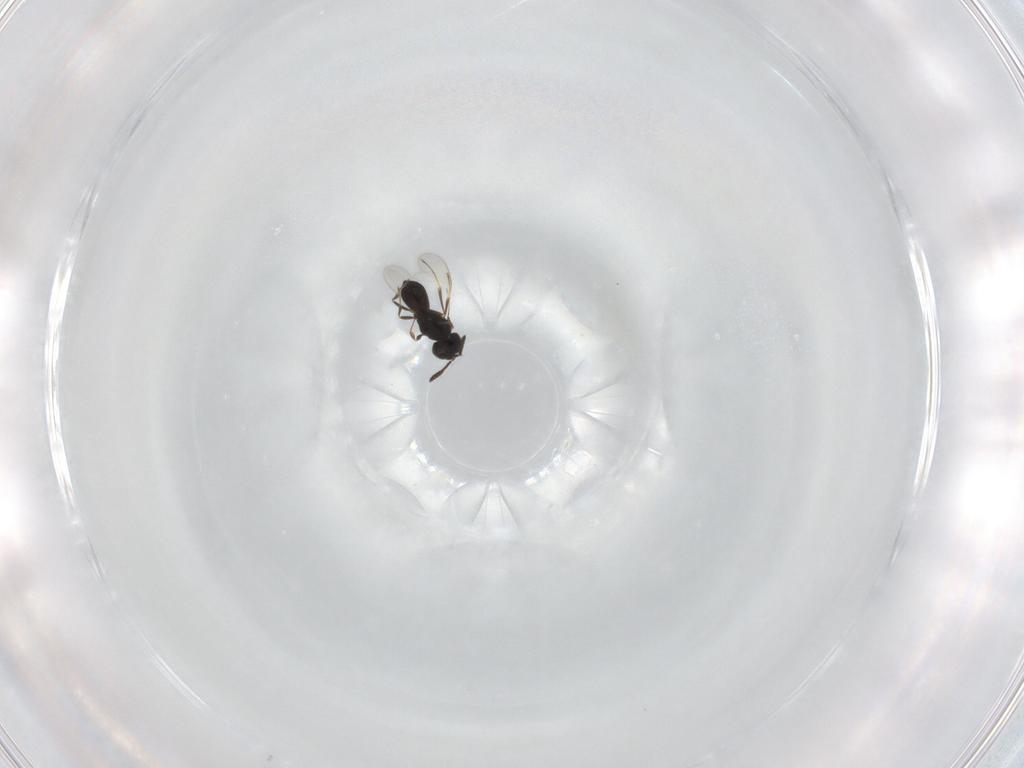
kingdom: Animalia
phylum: Arthropoda
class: Insecta
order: Hymenoptera
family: Scelionidae
